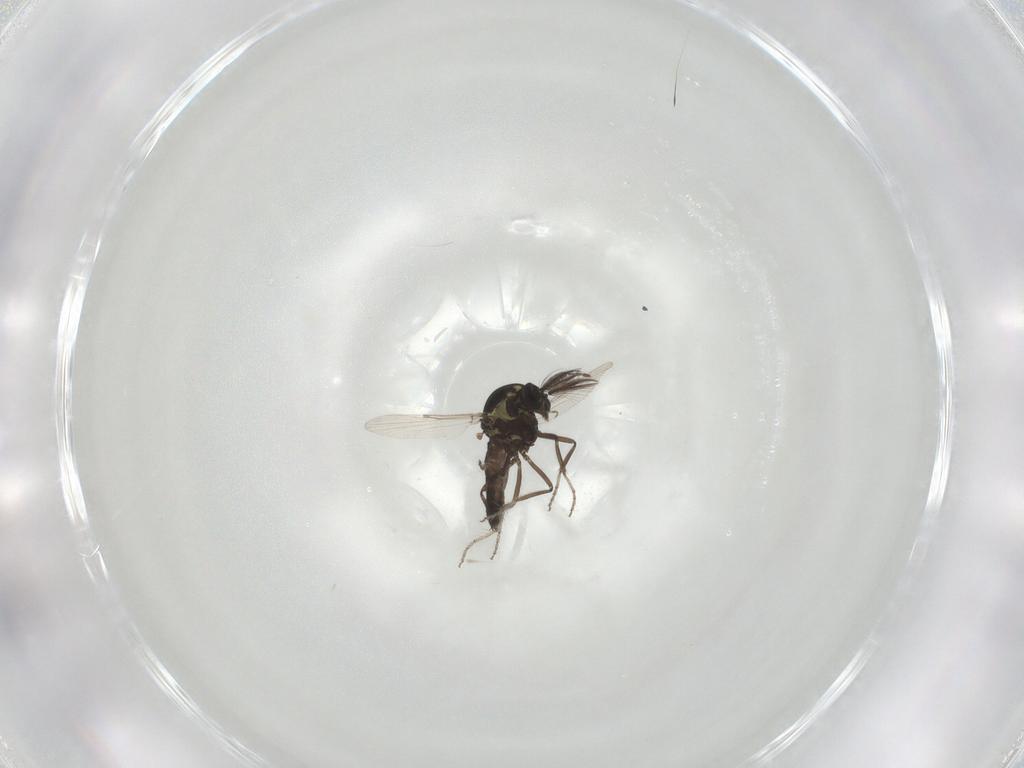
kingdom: Animalia
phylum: Arthropoda
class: Insecta
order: Diptera
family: Ceratopogonidae
